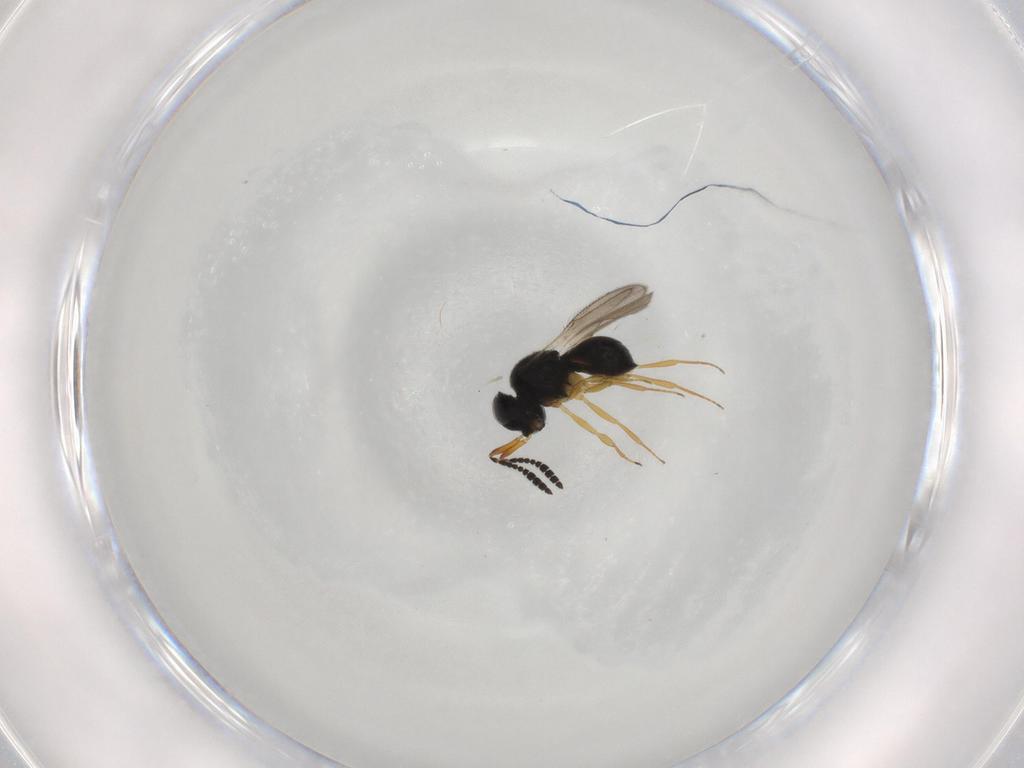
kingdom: Animalia
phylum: Arthropoda
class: Insecta
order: Hymenoptera
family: Scelionidae
